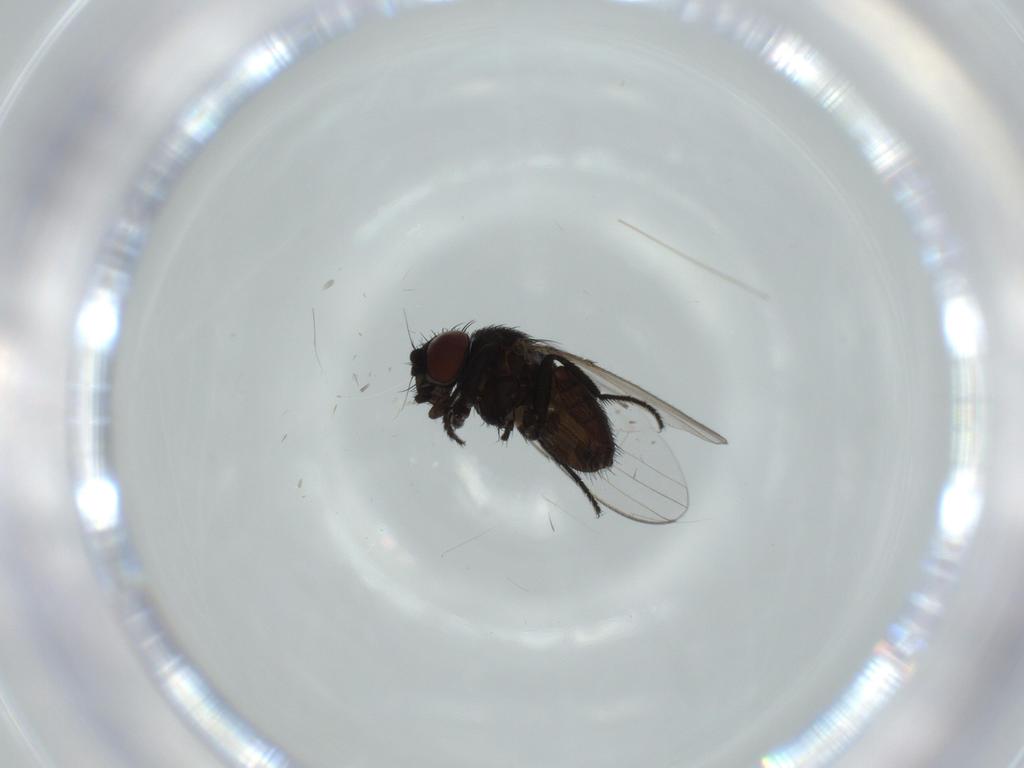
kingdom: Animalia
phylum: Arthropoda
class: Insecta
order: Diptera
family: Milichiidae
